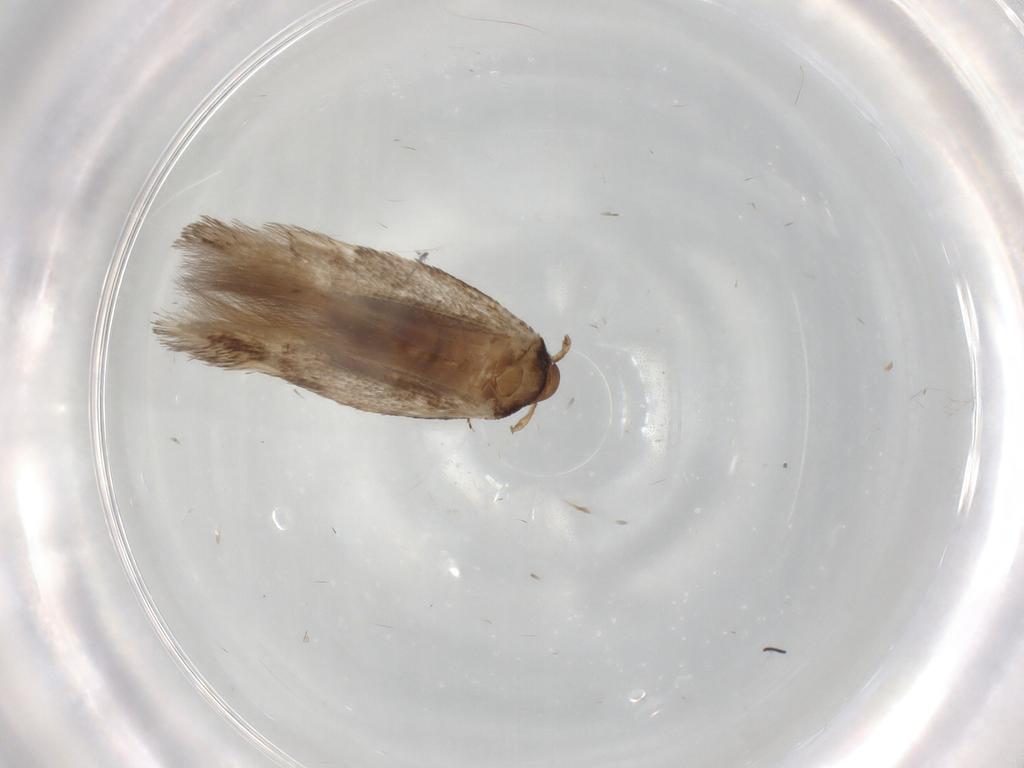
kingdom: Animalia
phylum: Arthropoda
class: Insecta
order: Lepidoptera
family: Cosmopterigidae
